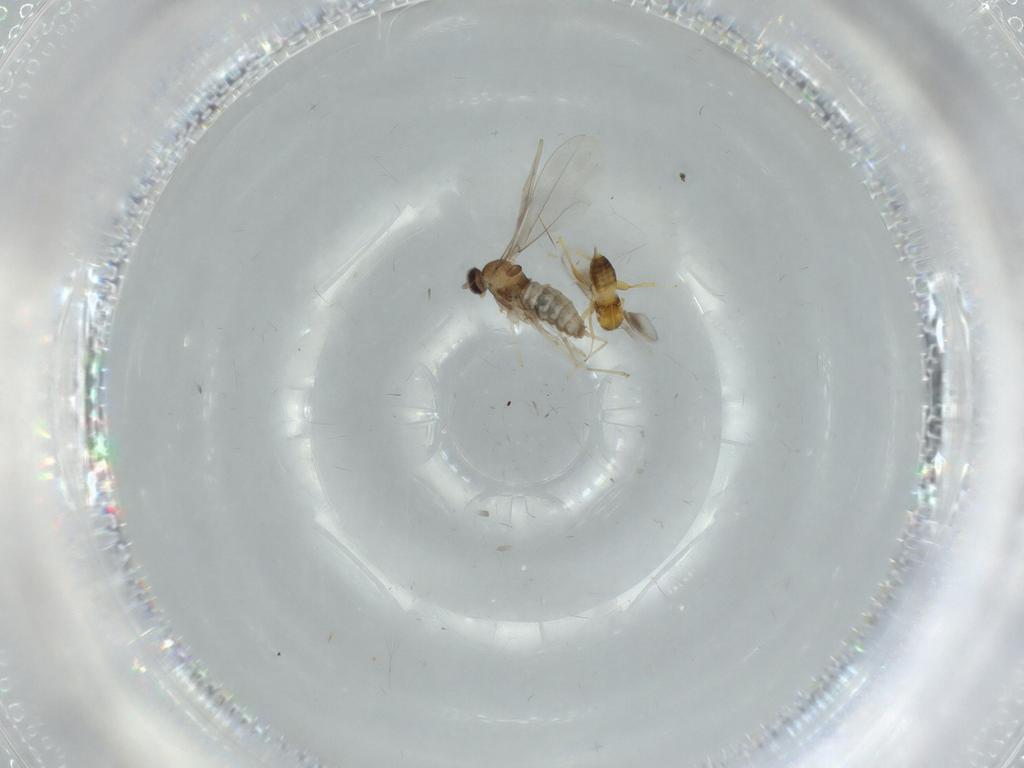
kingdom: Animalia
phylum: Arthropoda
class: Insecta
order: Diptera
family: Cecidomyiidae
